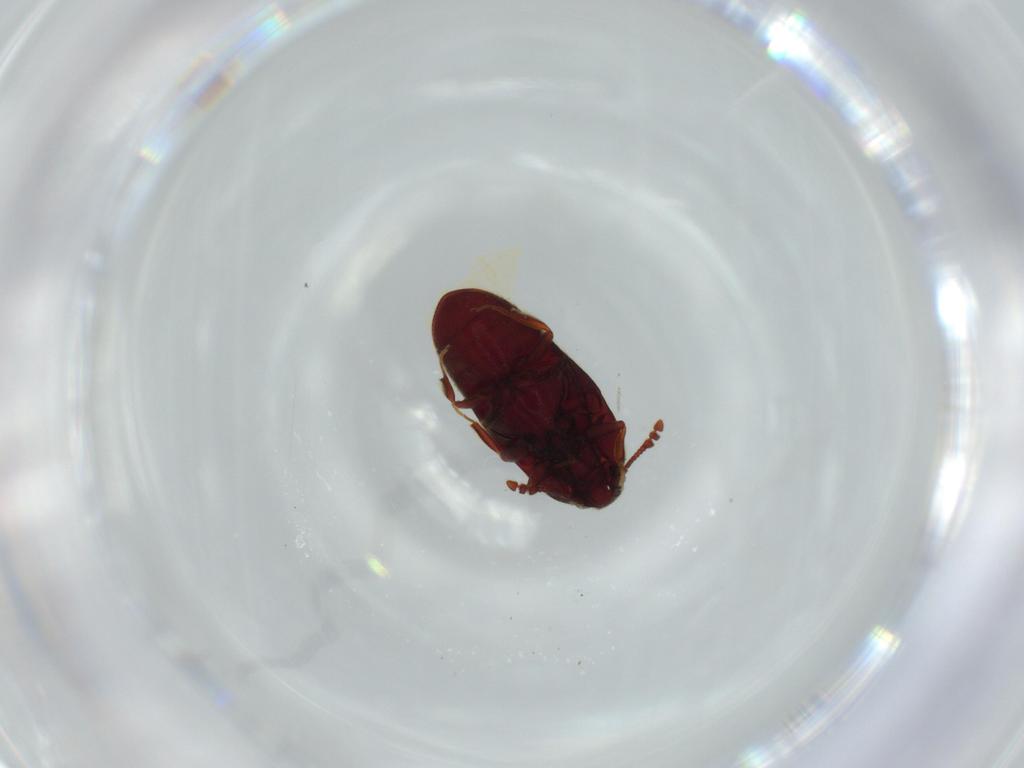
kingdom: Animalia
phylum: Arthropoda
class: Insecta
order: Coleoptera
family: Throscidae
